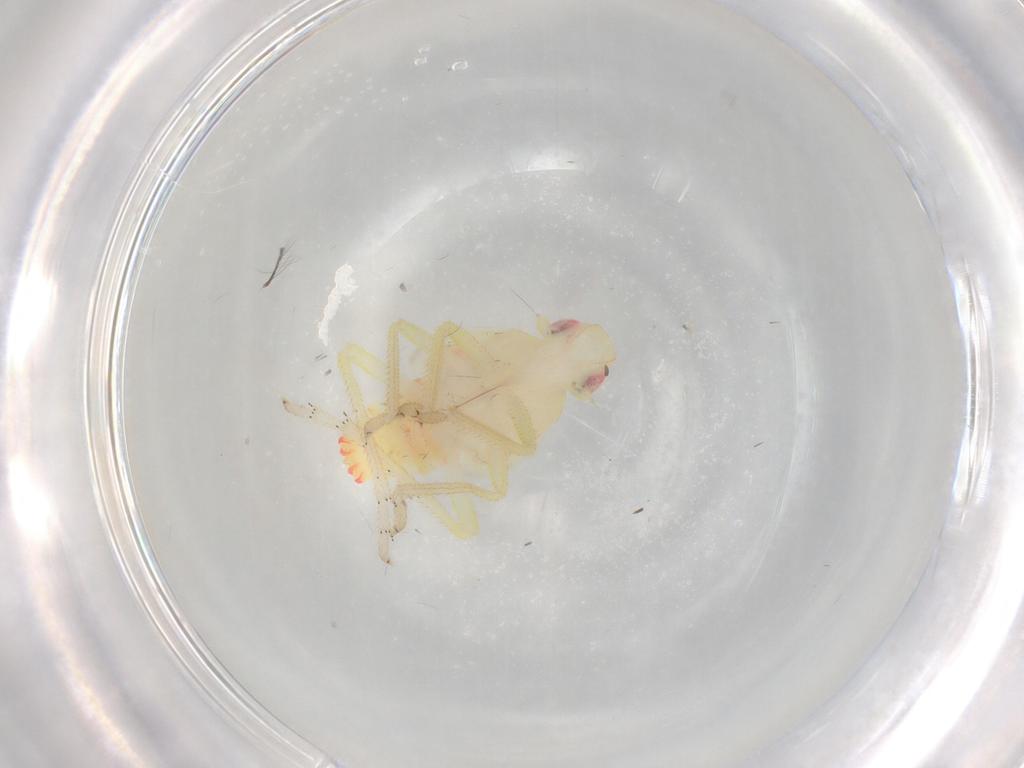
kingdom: Animalia
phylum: Arthropoda
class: Insecta
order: Hemiptera
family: Tropiduchidae
